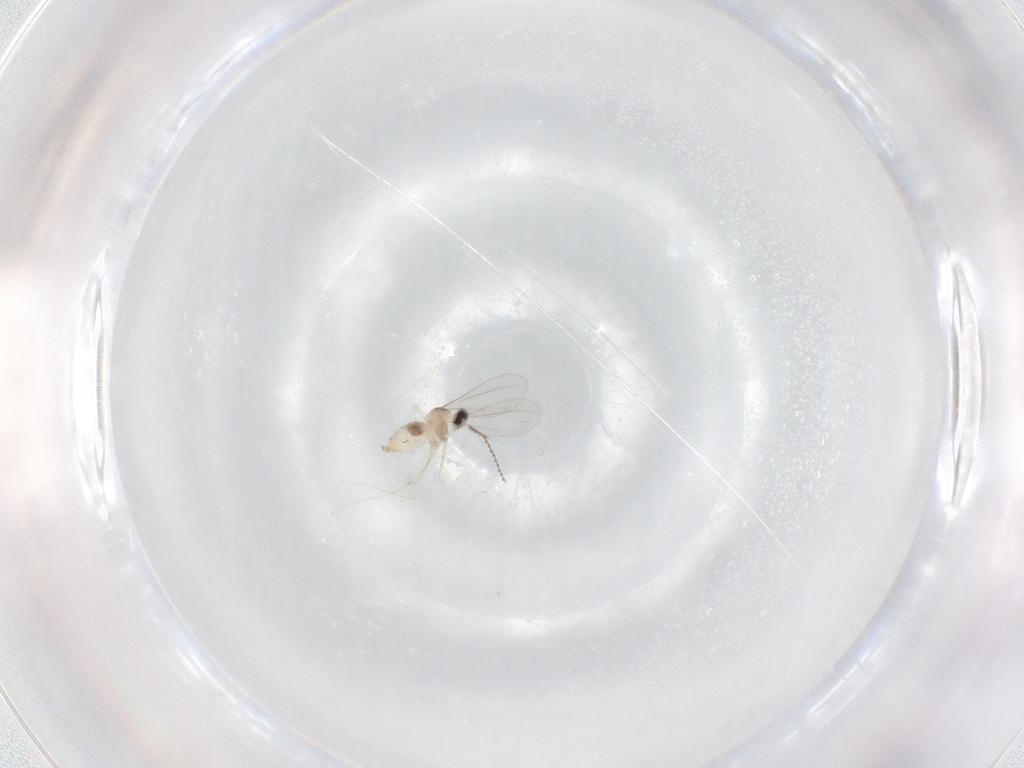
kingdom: Animalia
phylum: Arthropoda
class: Insecta
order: Diptera
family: Cecidomyiidae
